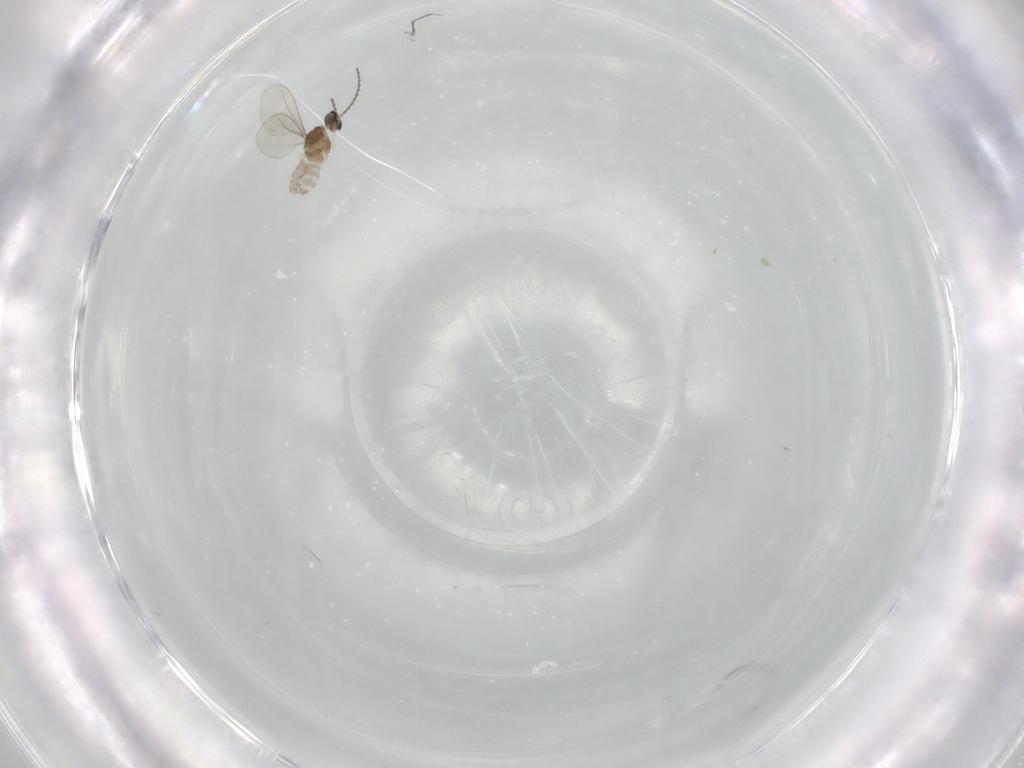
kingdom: Animalia
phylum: Arthropoda
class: Insecta
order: Diptera
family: Cecidomyiidae
